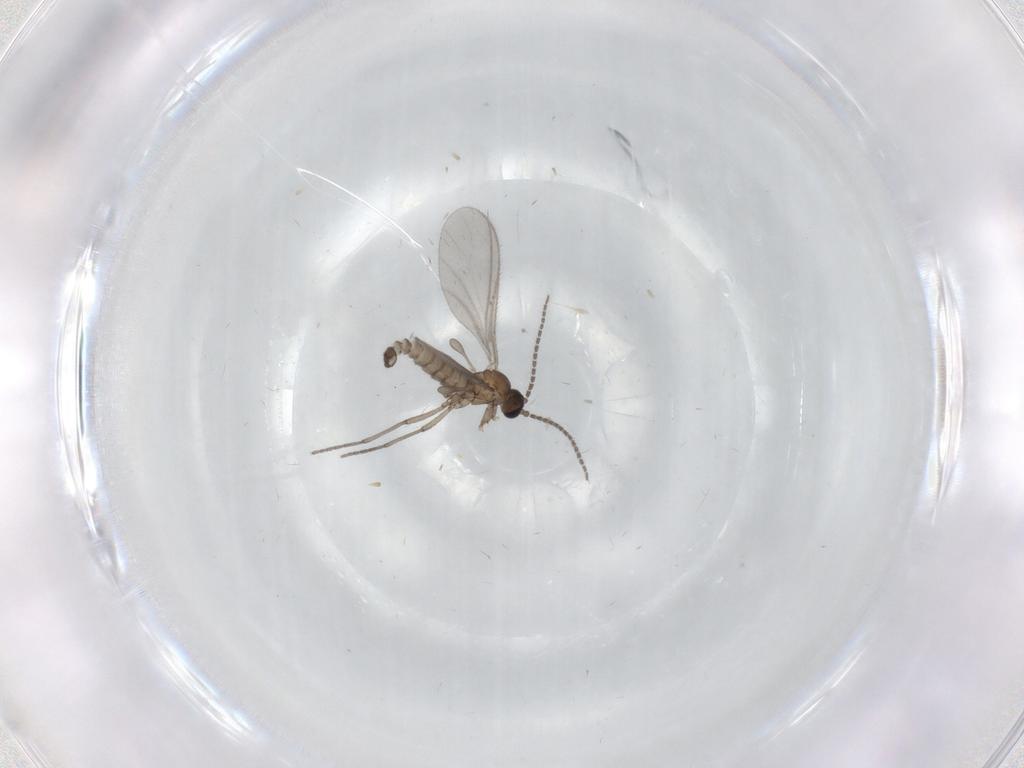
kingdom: Animalia
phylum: Arthropoda
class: Insecta
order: Diptera
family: Chironomidae
